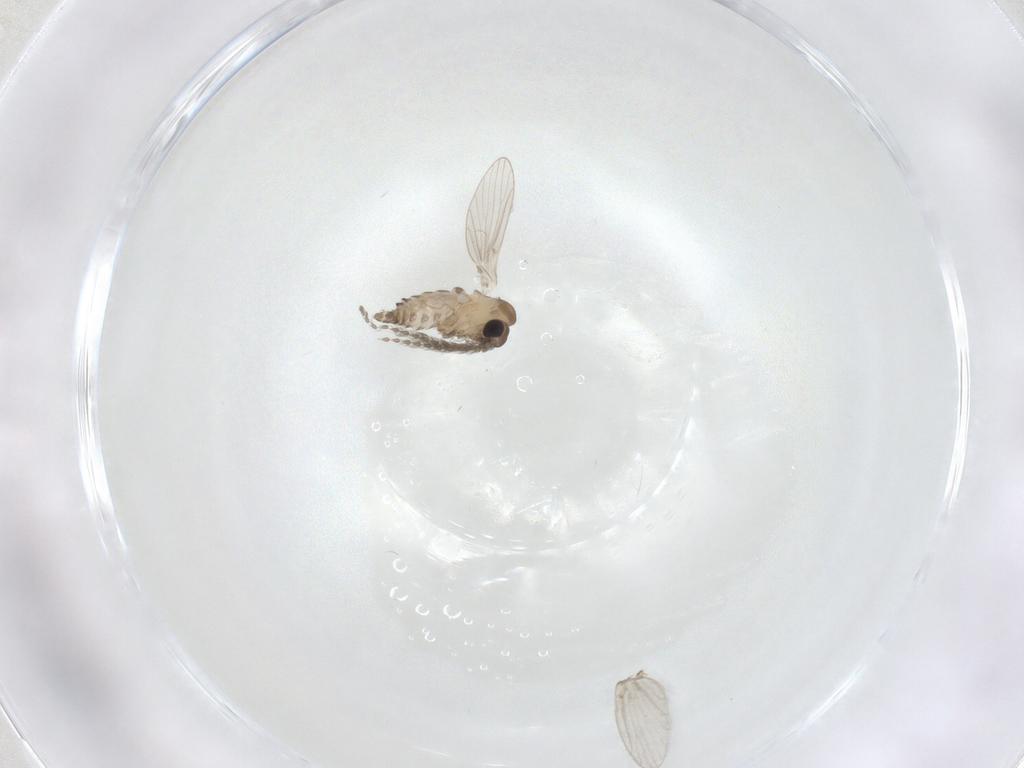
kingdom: Animalia
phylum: Arthropoda
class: Insecta
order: Diptera
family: Psychodidae
